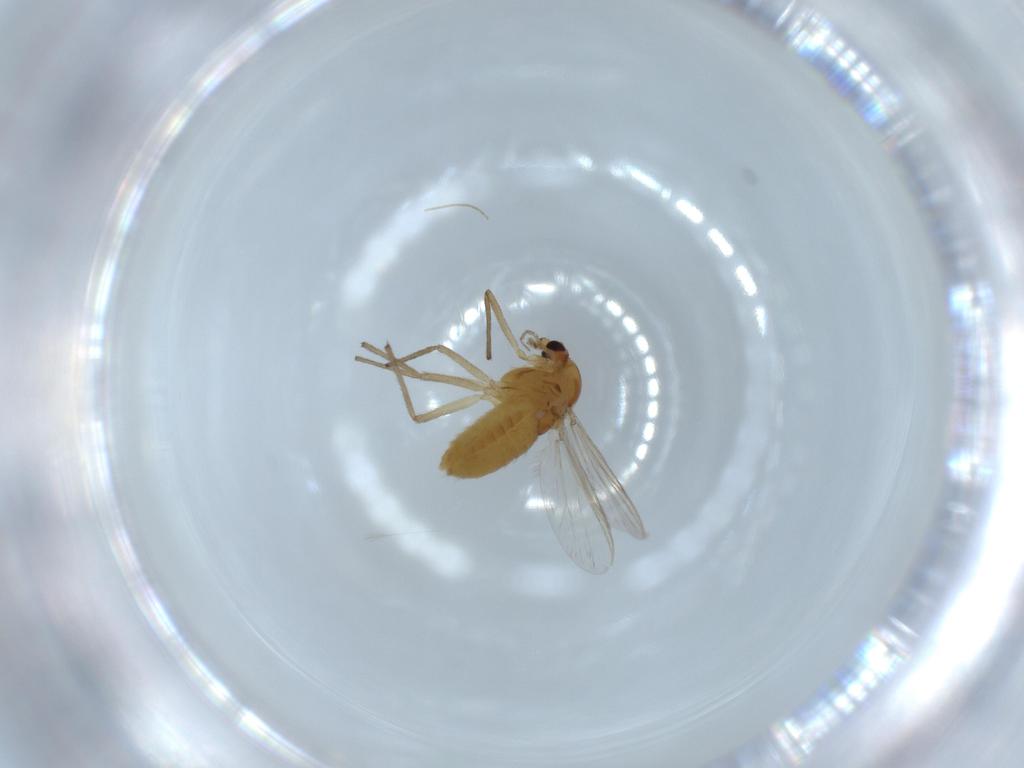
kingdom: Animalia
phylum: Arthropoda
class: Insecta
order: Diptera
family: Chironomidae
